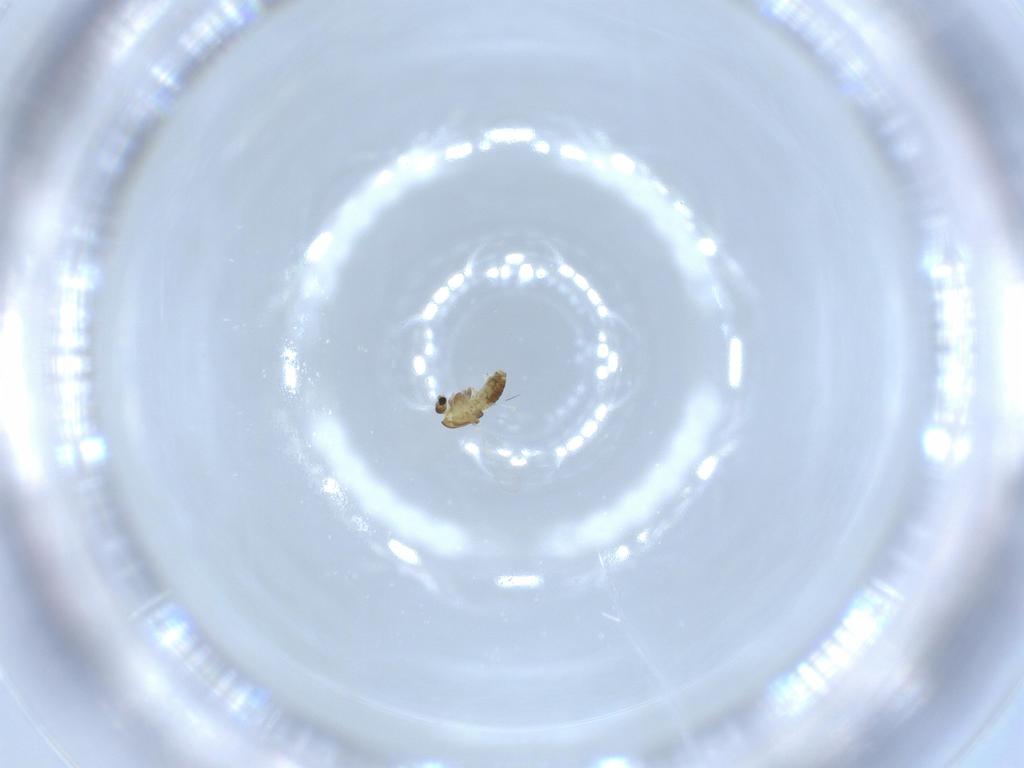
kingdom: Animalia
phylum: Arthropoda
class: Insecta
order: Diptera
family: Chironomidae
